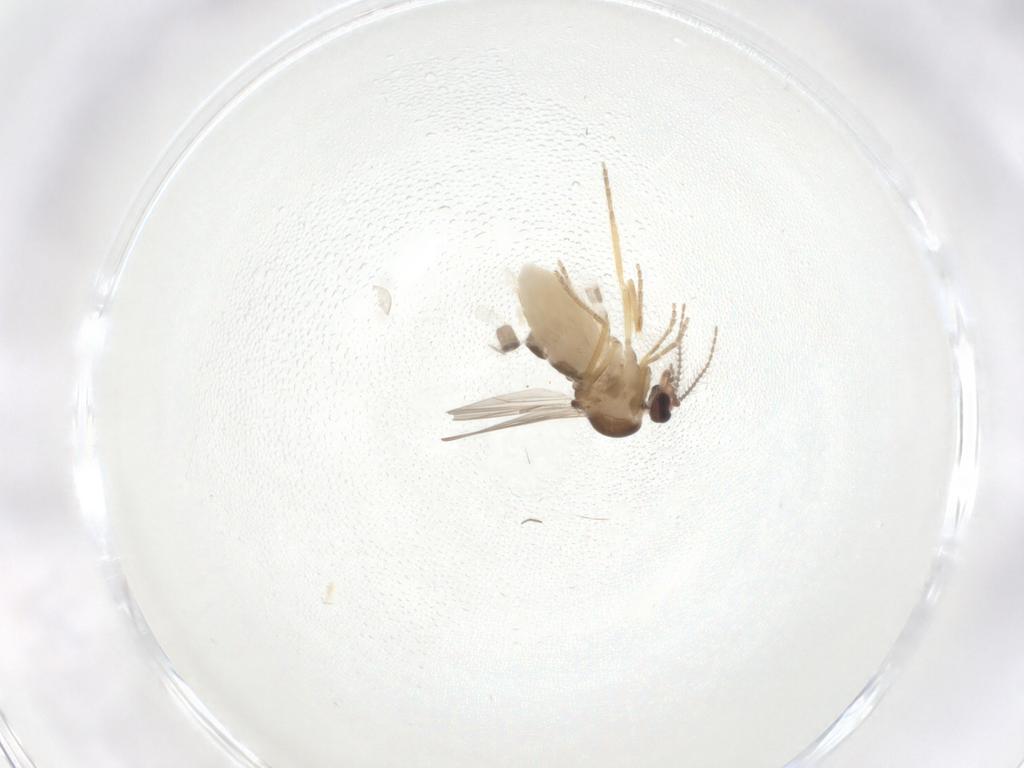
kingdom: Animalia
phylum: Arthropoda
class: Insecta
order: Diptera
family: Ceratopogonidae
